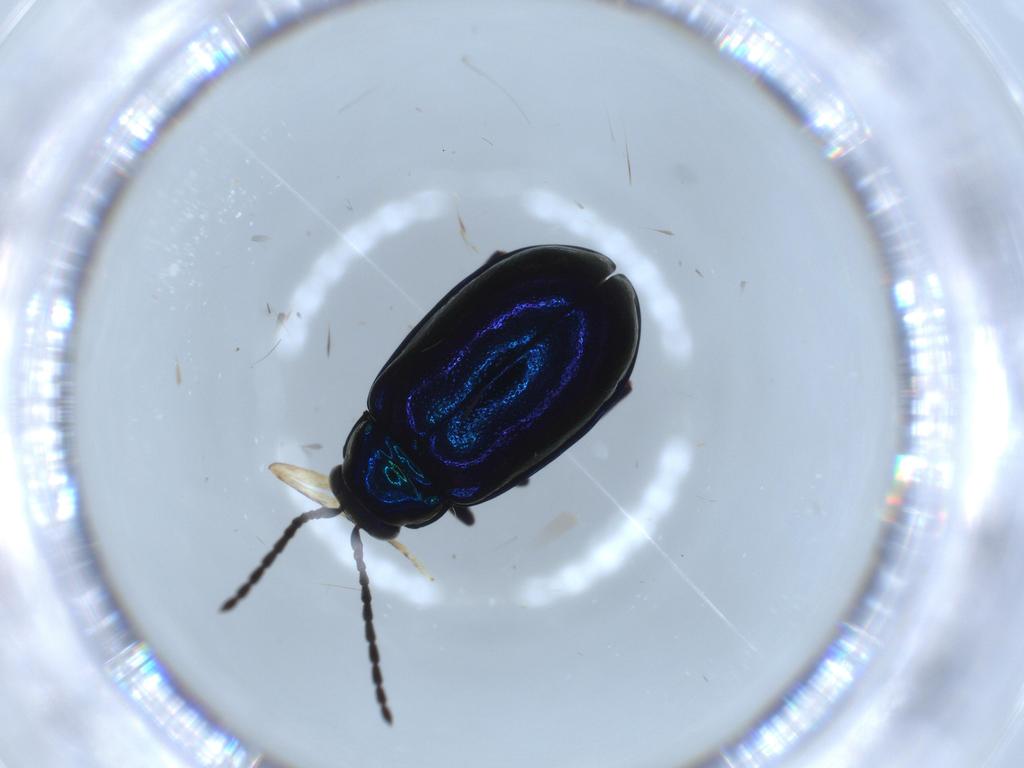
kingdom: Animalia
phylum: Arthropoda
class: Insecta
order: Coleoptera
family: Chrysomelidae
